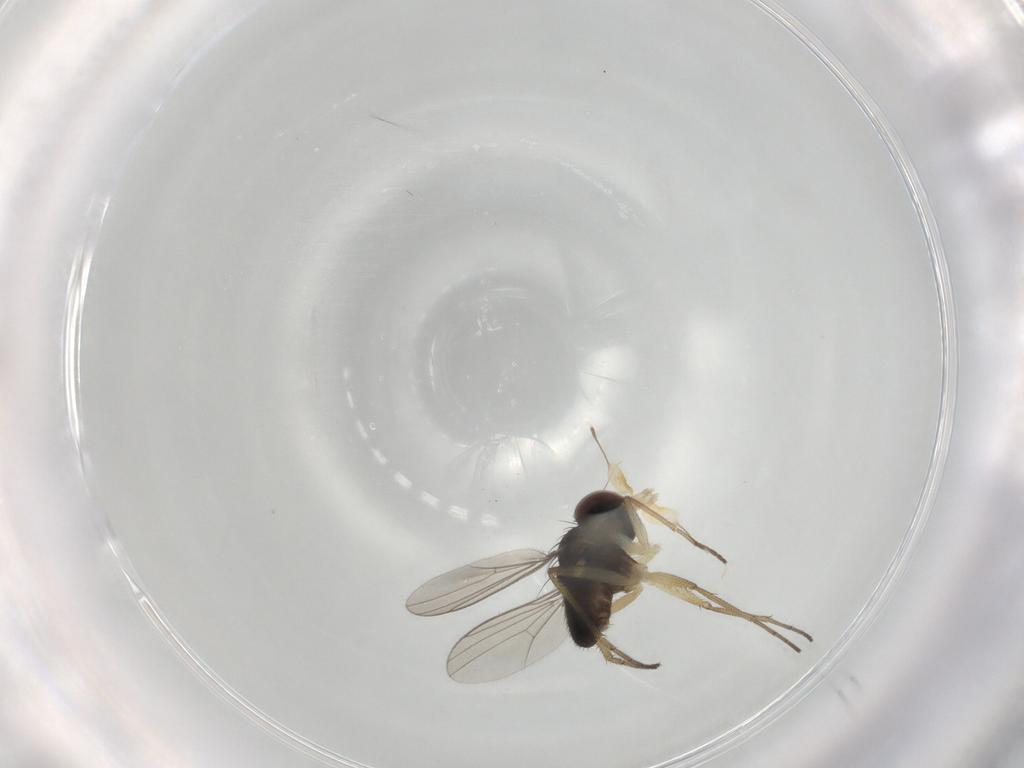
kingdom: Animalia
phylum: Arthropoda
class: Insecta
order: Diptera
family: Dolichopodidae
